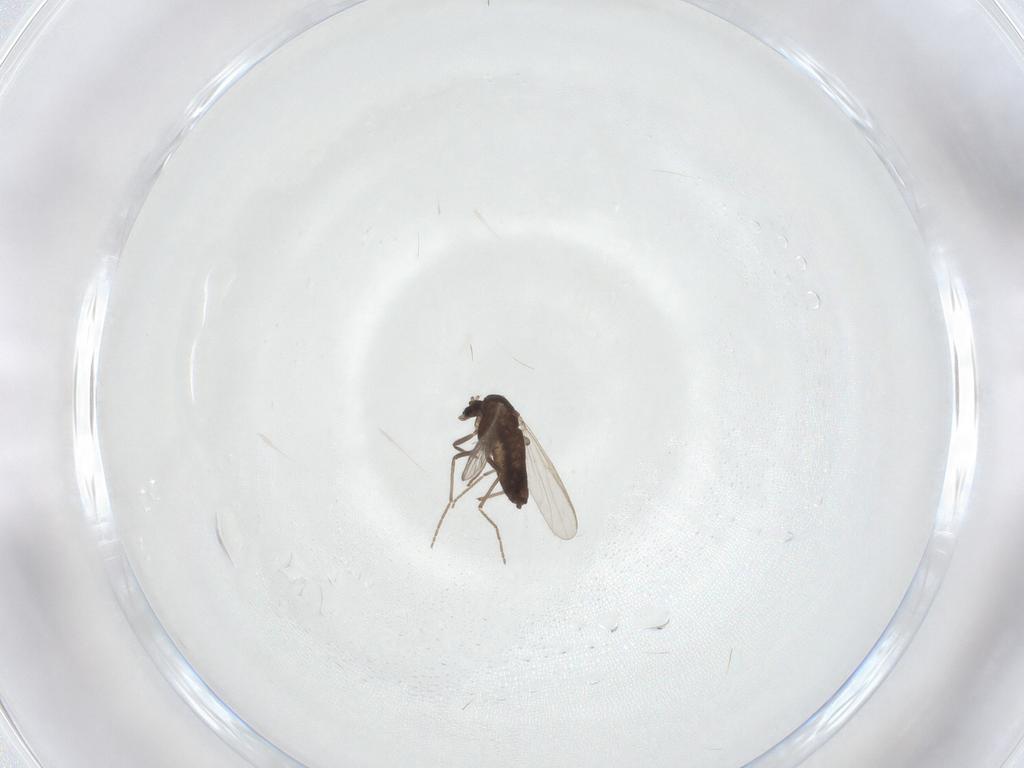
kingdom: Animalia
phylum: Arthropoda
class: Insecta
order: Diptera
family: Chironomidae
